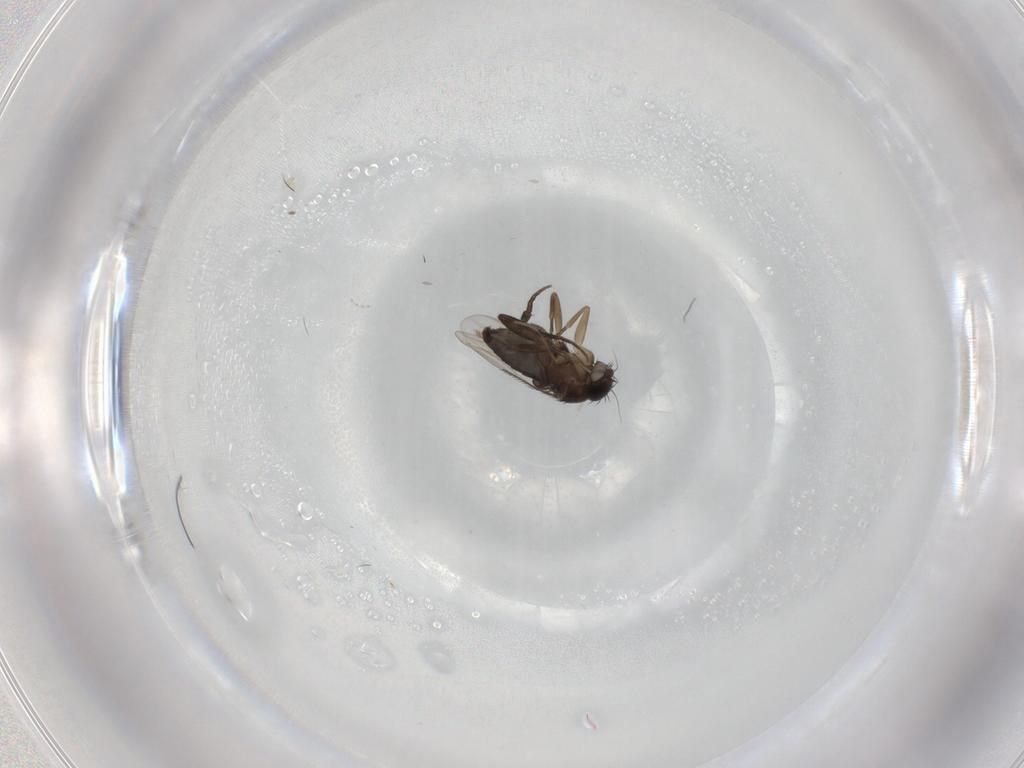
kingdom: Animalia
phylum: Arthropoda
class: Insecta
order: Diptera
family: Phoridae
